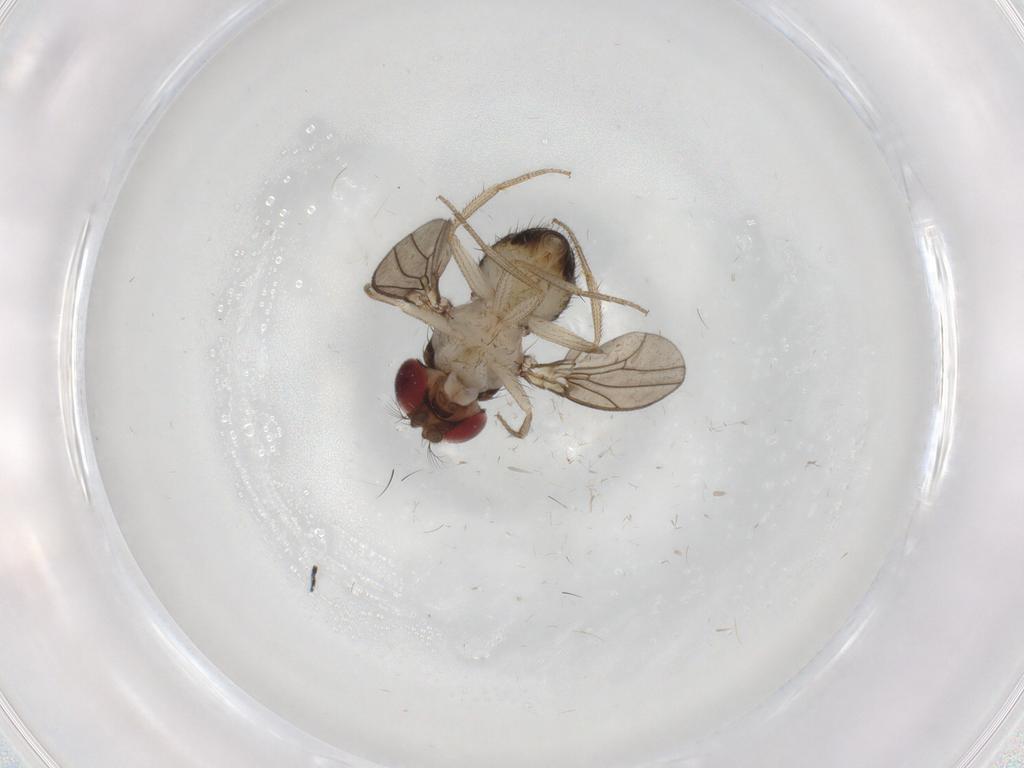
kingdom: Animalia
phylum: Arthropoda
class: Insecta
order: Diptera
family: Drosophilidae
